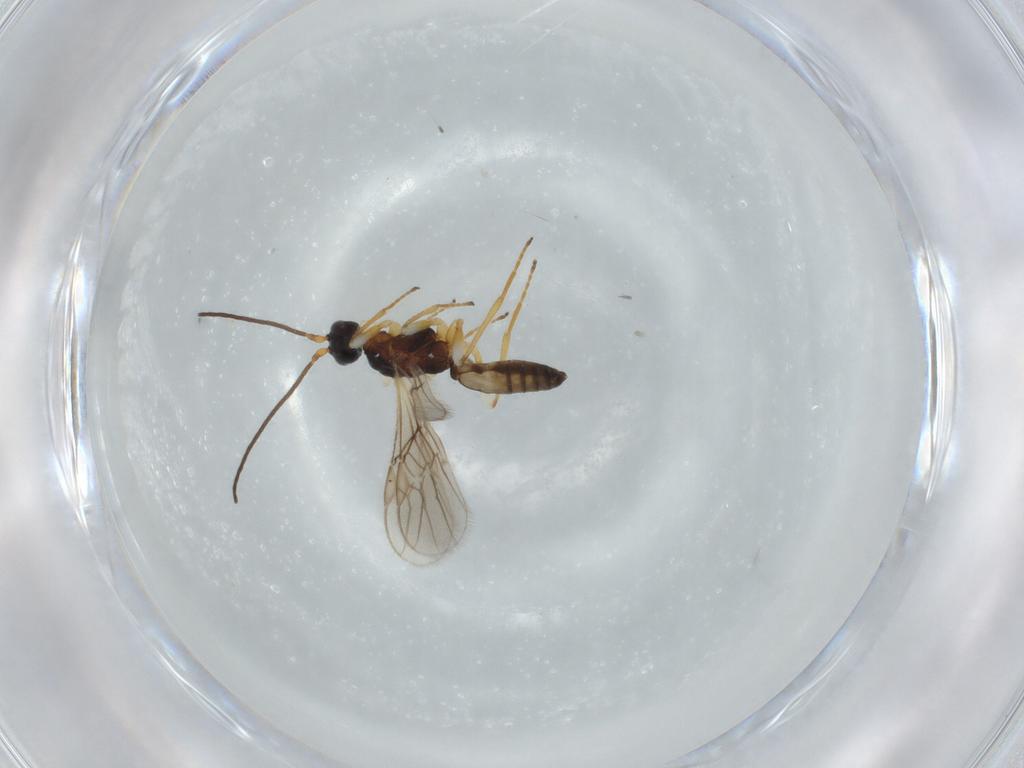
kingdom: Animalia
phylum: Arthropoda
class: Insecta
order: Hymenoptera
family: Braconidae
